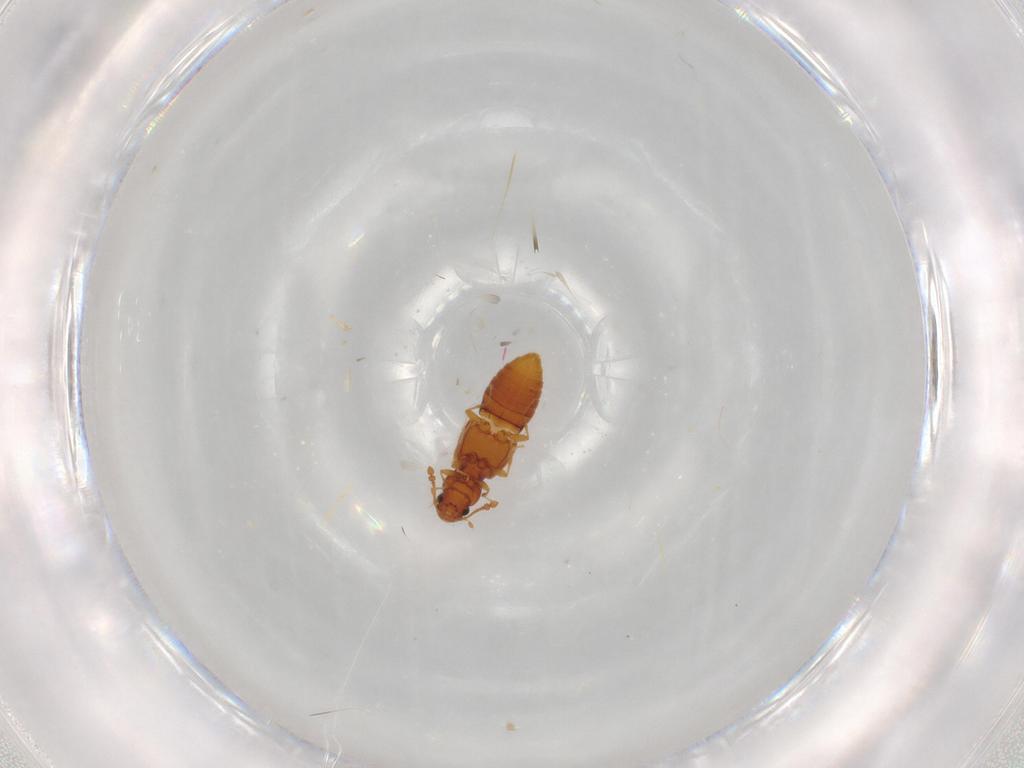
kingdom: Animalia
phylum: Arthropoda
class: Insecta
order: Coleoptera
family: Staphylinidae
